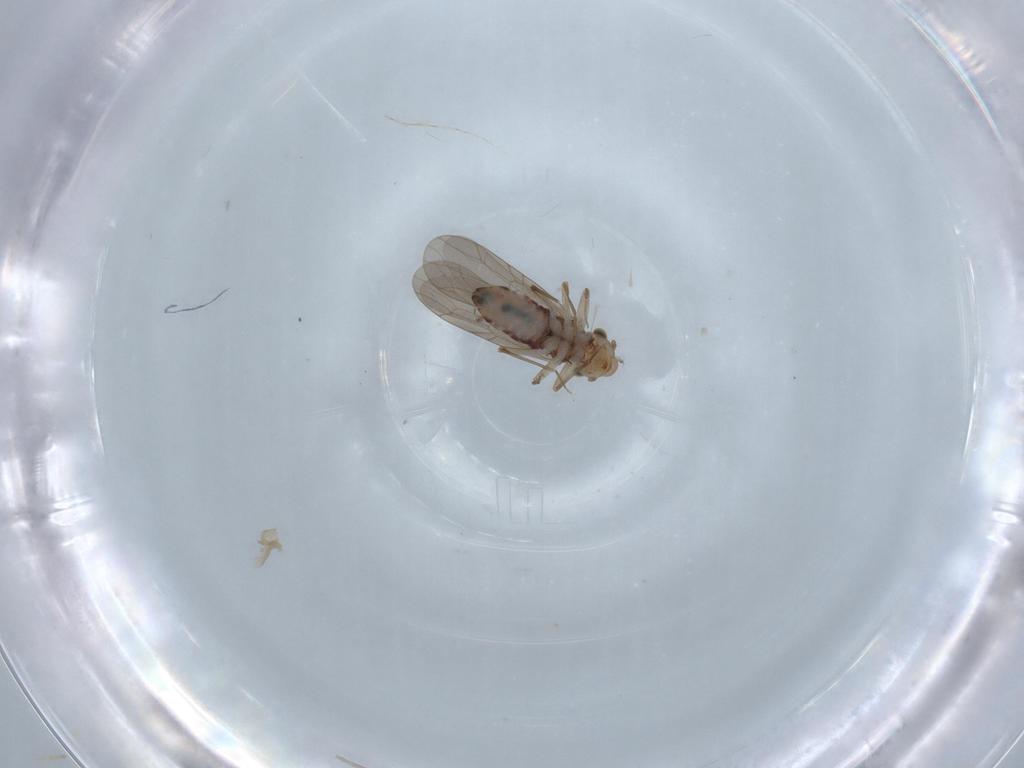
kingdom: Animalia
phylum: Arthropoda
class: Insecta
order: Psocodea
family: Lepidopsocidae
